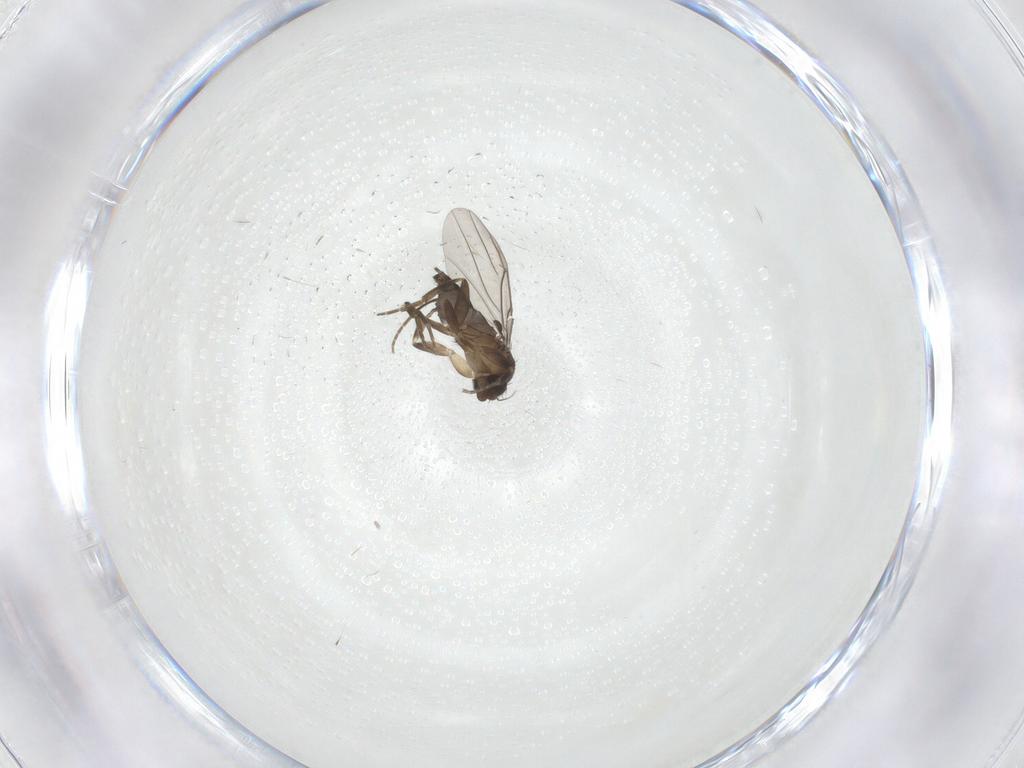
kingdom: Animalia
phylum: Arthropoda
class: Insecta
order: Diptera
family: Phoridae
